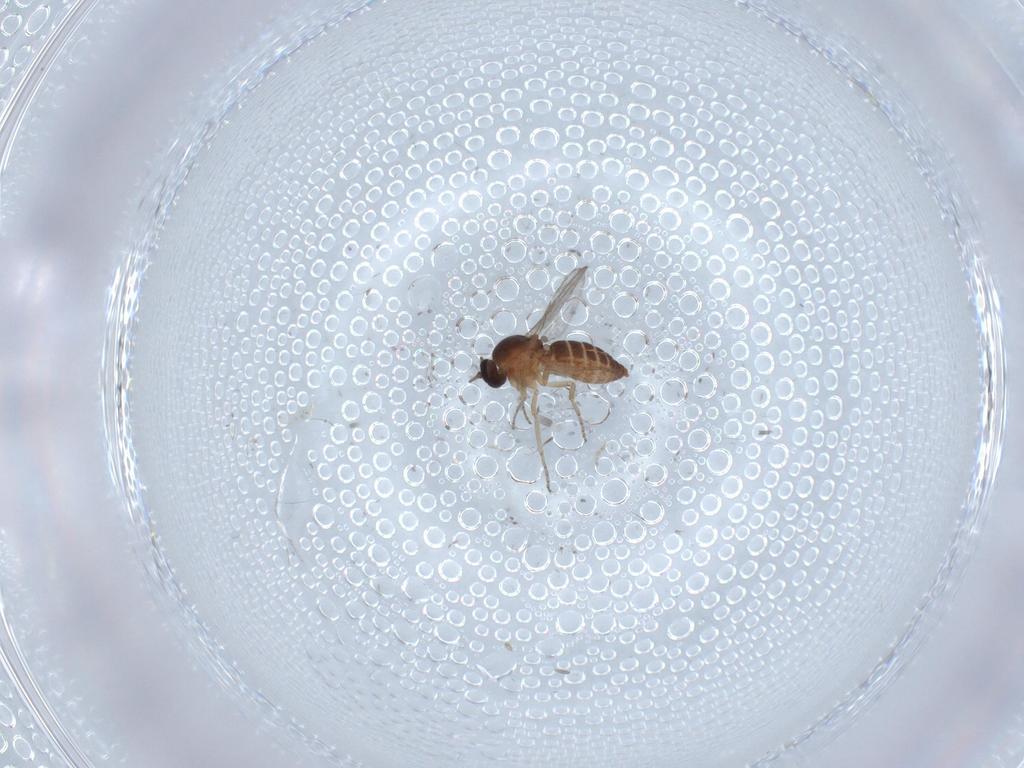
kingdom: Animalia
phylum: Arthropoda
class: Insecta
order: Diptera
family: Ceratopogonidae
